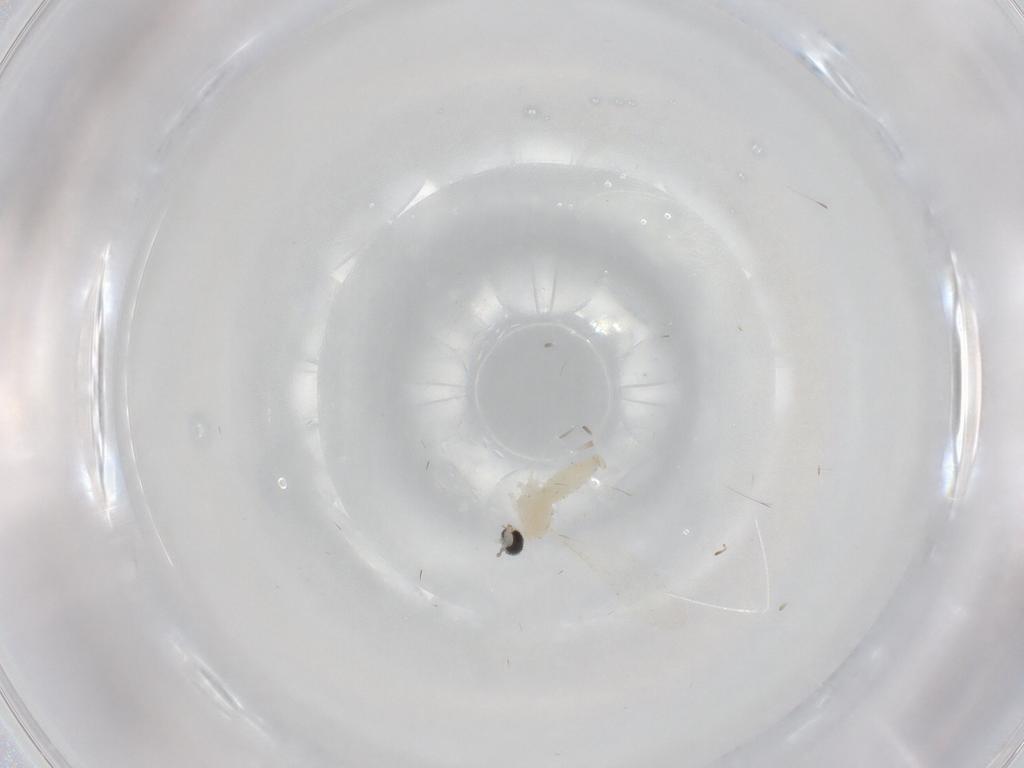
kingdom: Animalia
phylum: Arthropoda
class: Insecta
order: Diptera
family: Cecidomyiidae
